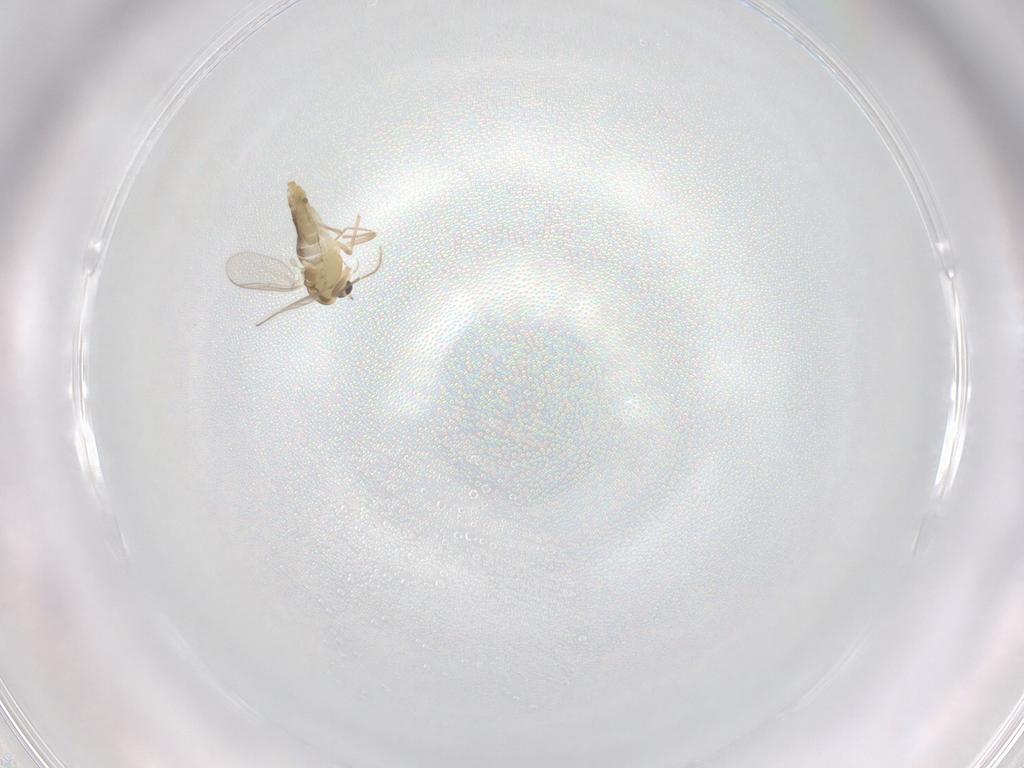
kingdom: Animalia
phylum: Arthropoda
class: Insecta
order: Diptera
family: Chironomidae
